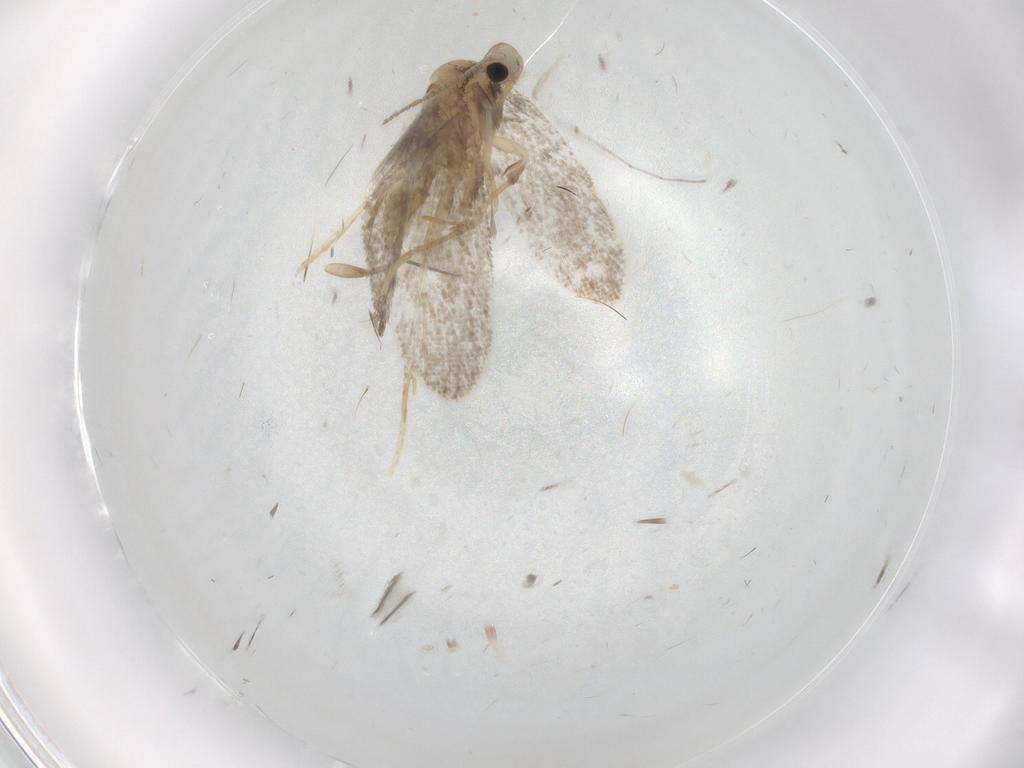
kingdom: Animalia
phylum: Arthropoda
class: Insecta
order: Lepidoptera
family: Psychidae
